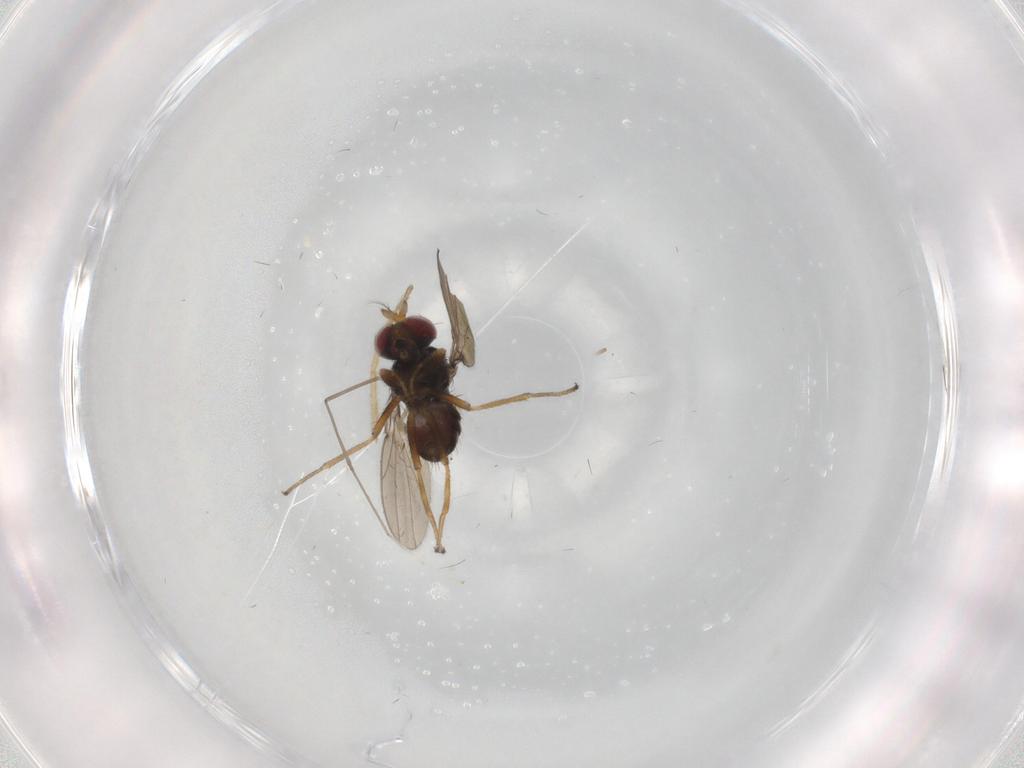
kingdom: Animalia
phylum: Arthropoda
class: Insecta
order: Diptera
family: Ephydridae
